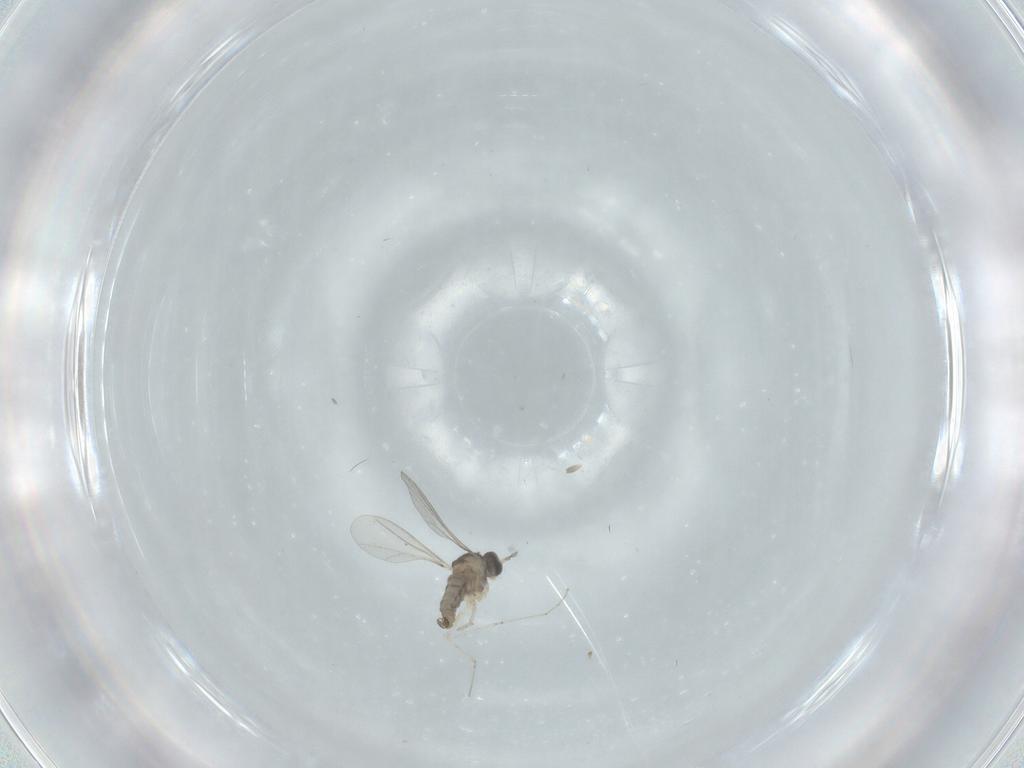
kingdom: Animalia
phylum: Arthropoda
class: Insecta
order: Diptera
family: Cecidomyiidae
